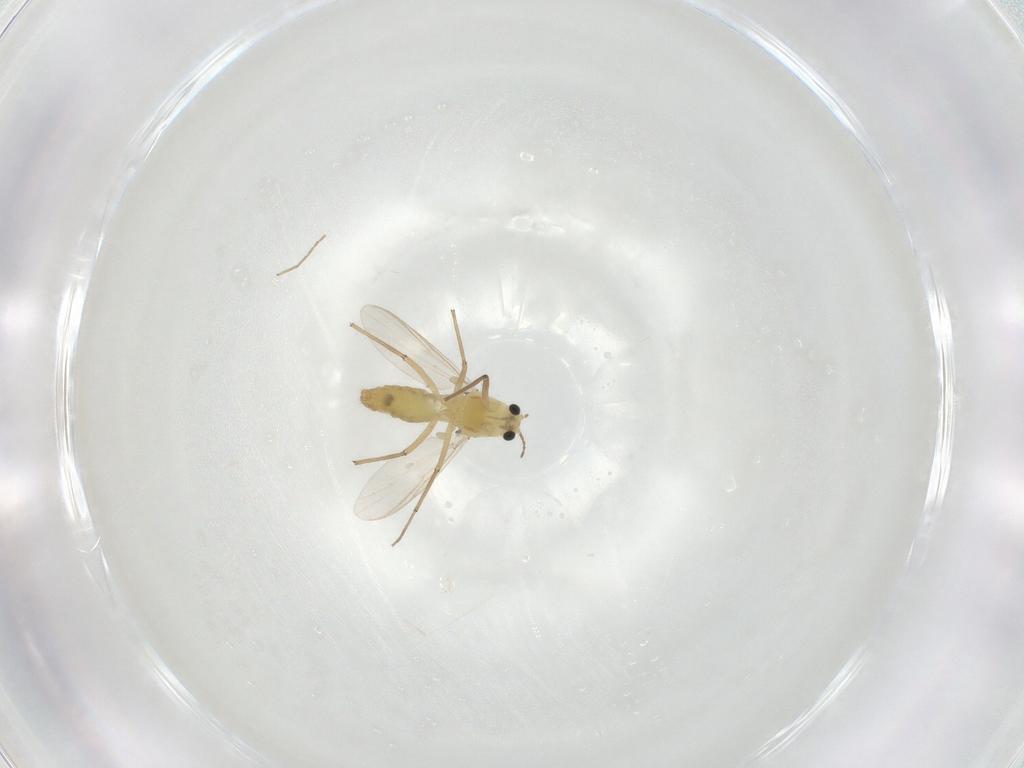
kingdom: Animalia
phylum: Arthropoda
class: Insecta
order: Diptera
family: Chironomidae
